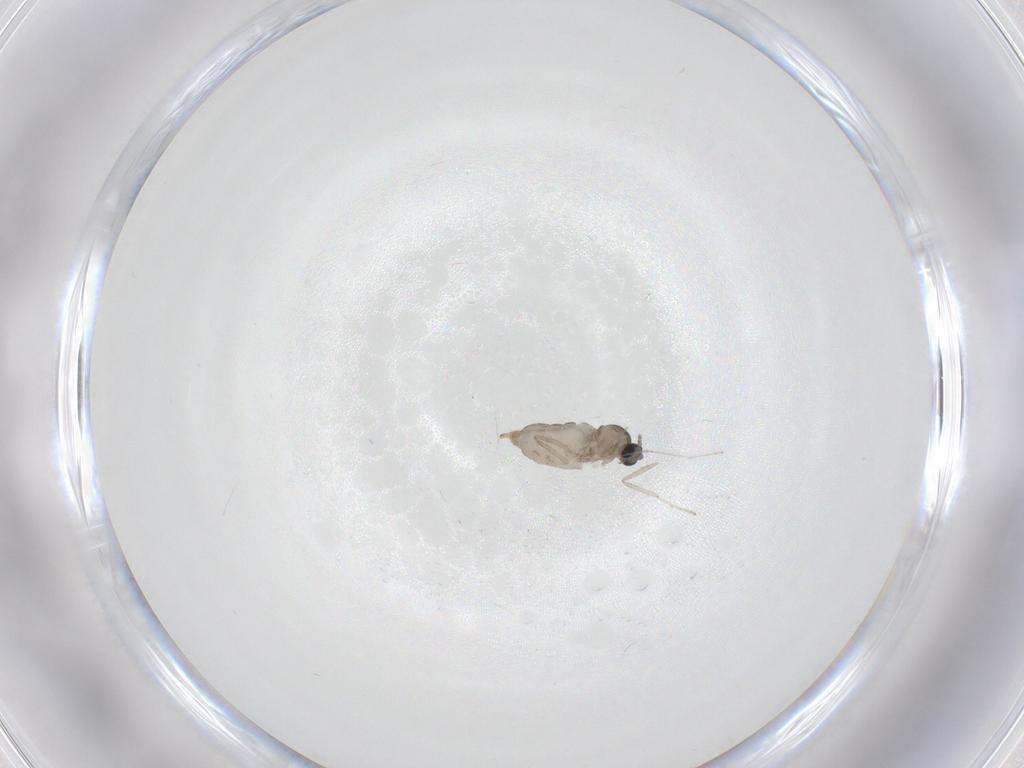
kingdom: Animalia
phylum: Arthropoda
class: Insecta
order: Diptera
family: Cecidomyiidae
